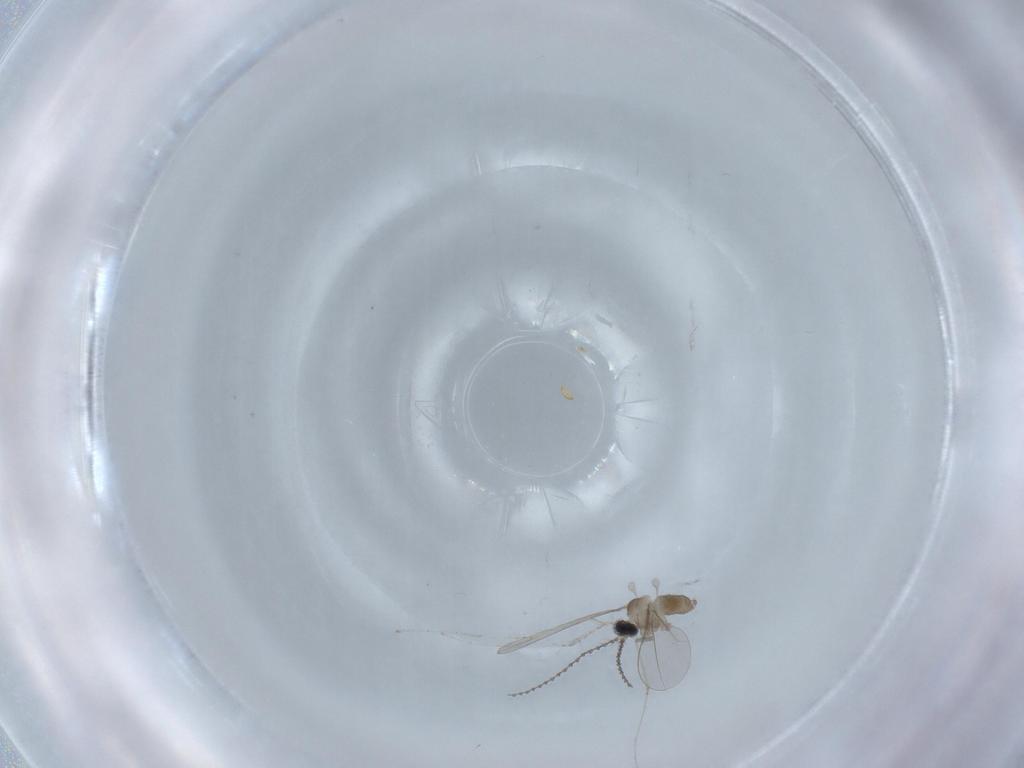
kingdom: Animalia
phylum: Arthropoda
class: Insecta
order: Diptera
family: Cecidomyiidae
